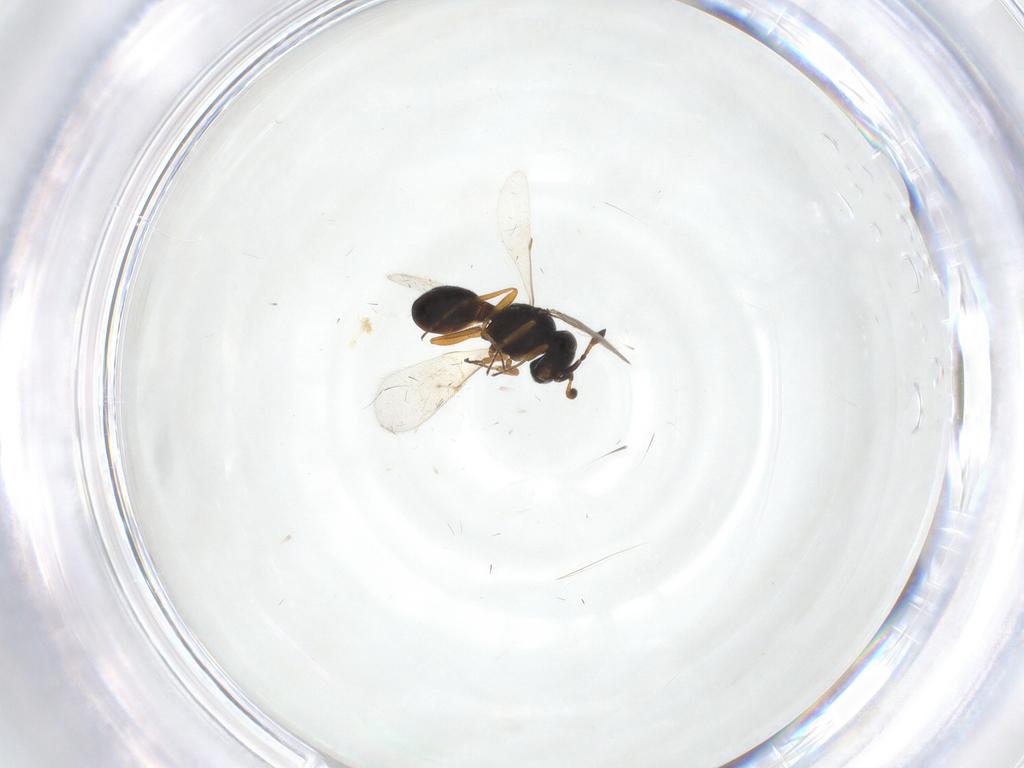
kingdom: Animalia
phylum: Arthropoda
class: Insecta
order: Hymenoptera
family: Scelionidae
